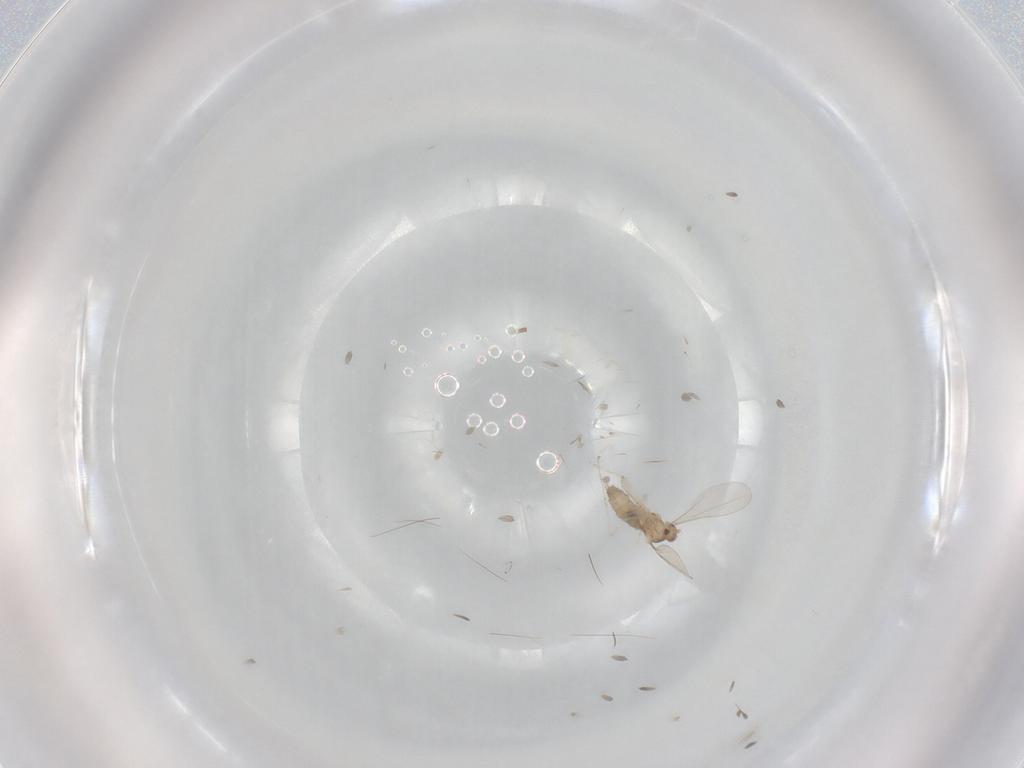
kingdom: Animalia
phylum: Arthropoda
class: Insecta
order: Diptera
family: Cecidomyiidae
